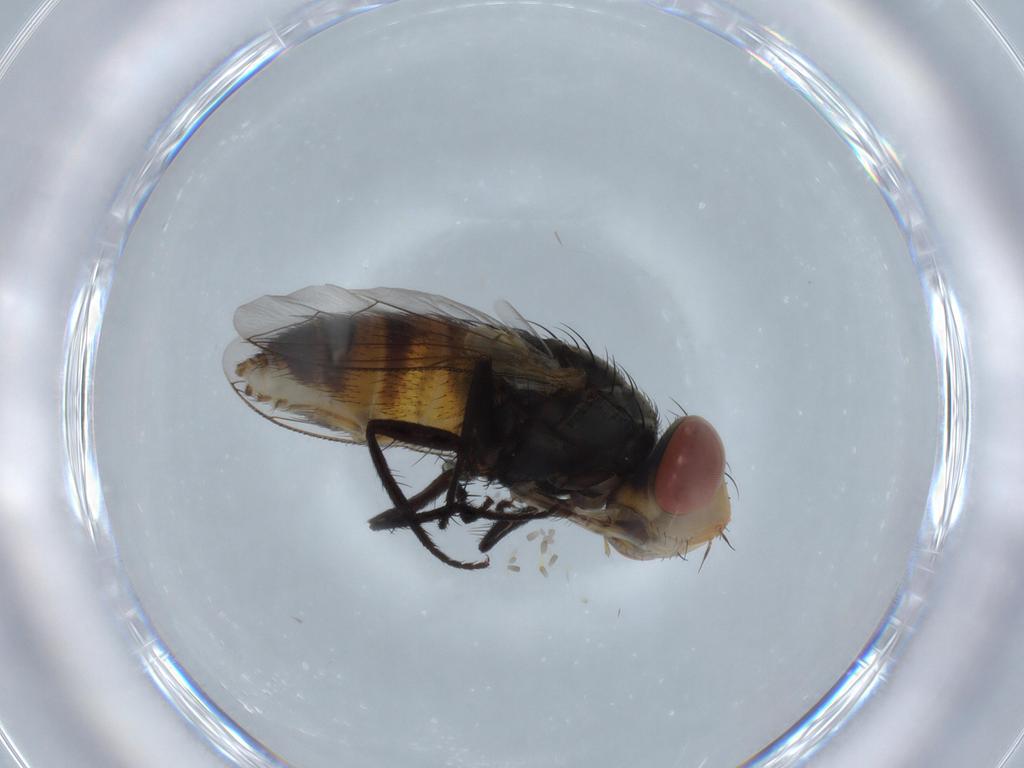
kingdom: Animalia
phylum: Arthropoda
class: Insecta
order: Diptera
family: Sarcophagidae
